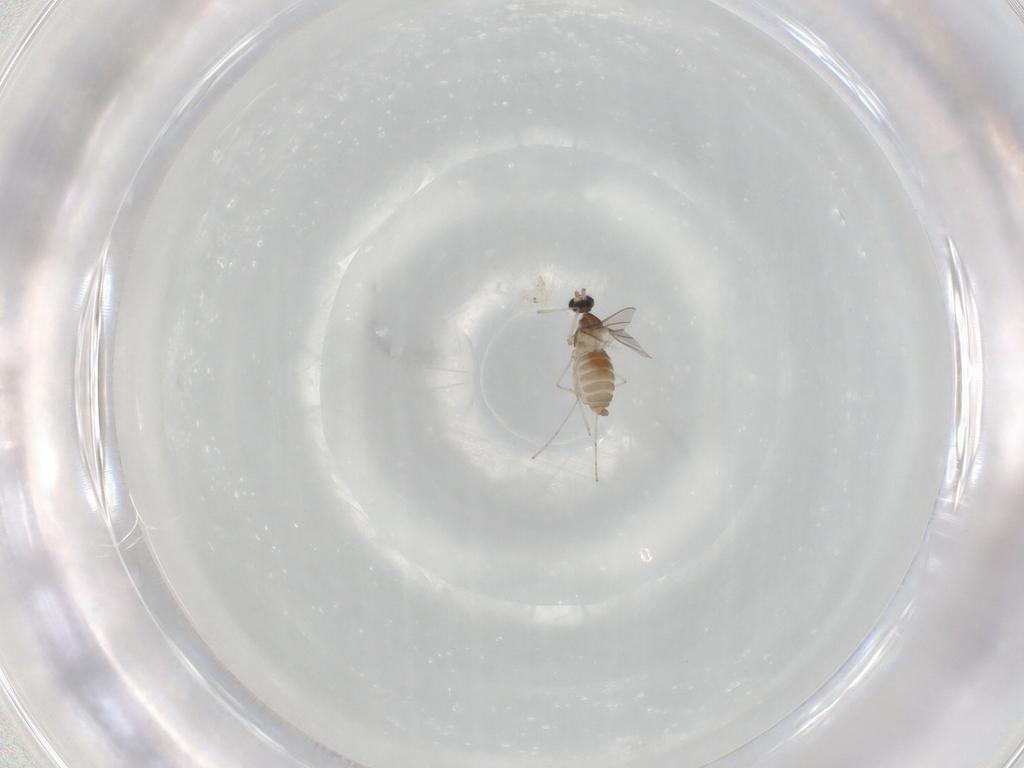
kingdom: Animalia
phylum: Arthropoda
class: Insecta
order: Diptera
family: Cecidomyiidae
